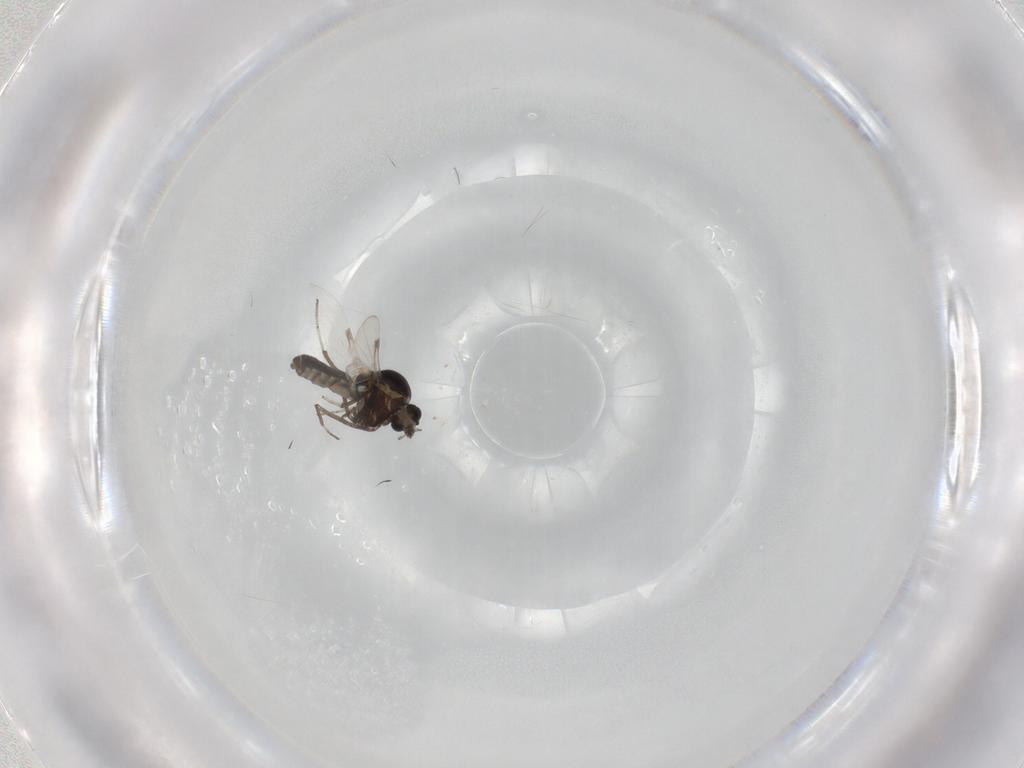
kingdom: Animalia
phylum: Arthropoda
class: Insecta
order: Diptera
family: Ceratopogonidae
